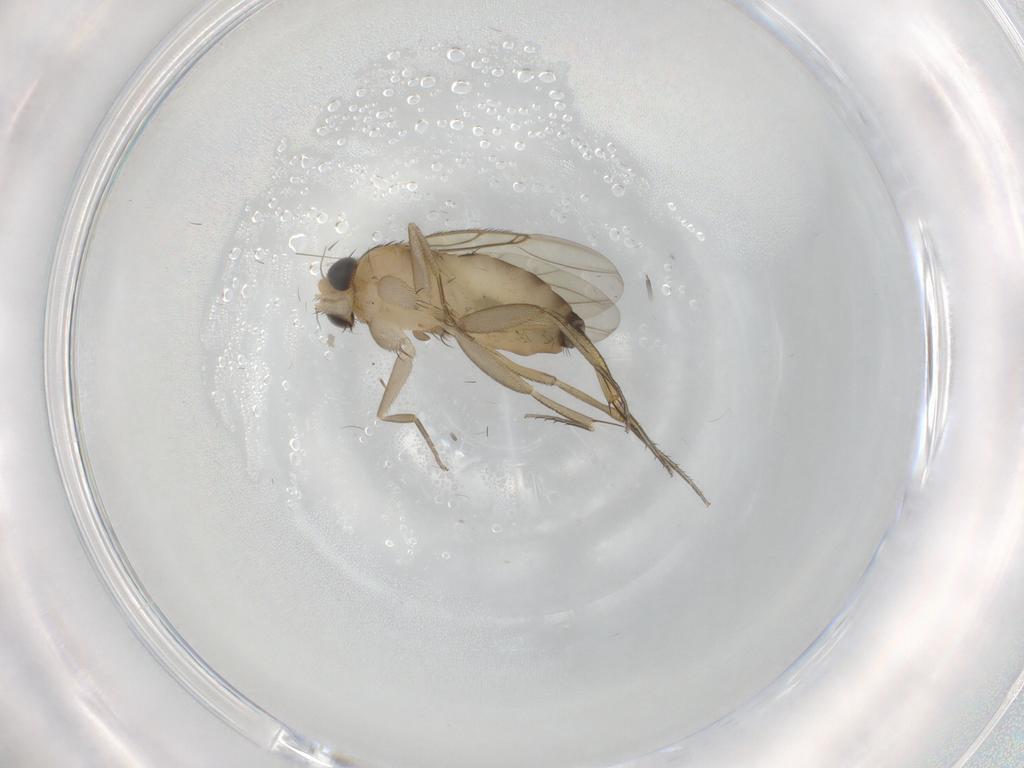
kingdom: Animalia
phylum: Arthropoda
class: Insecta
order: Diptera
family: Phoridae
